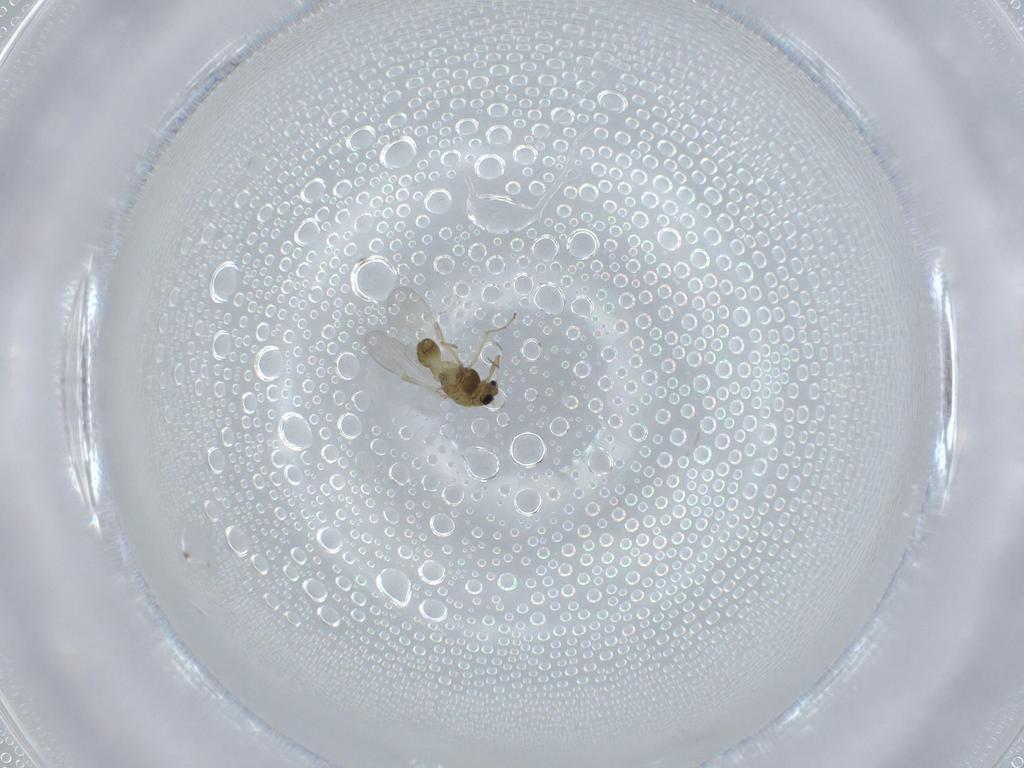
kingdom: Animalia
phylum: Arthropoda
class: Insecta
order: Diptera
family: Chironomidae
